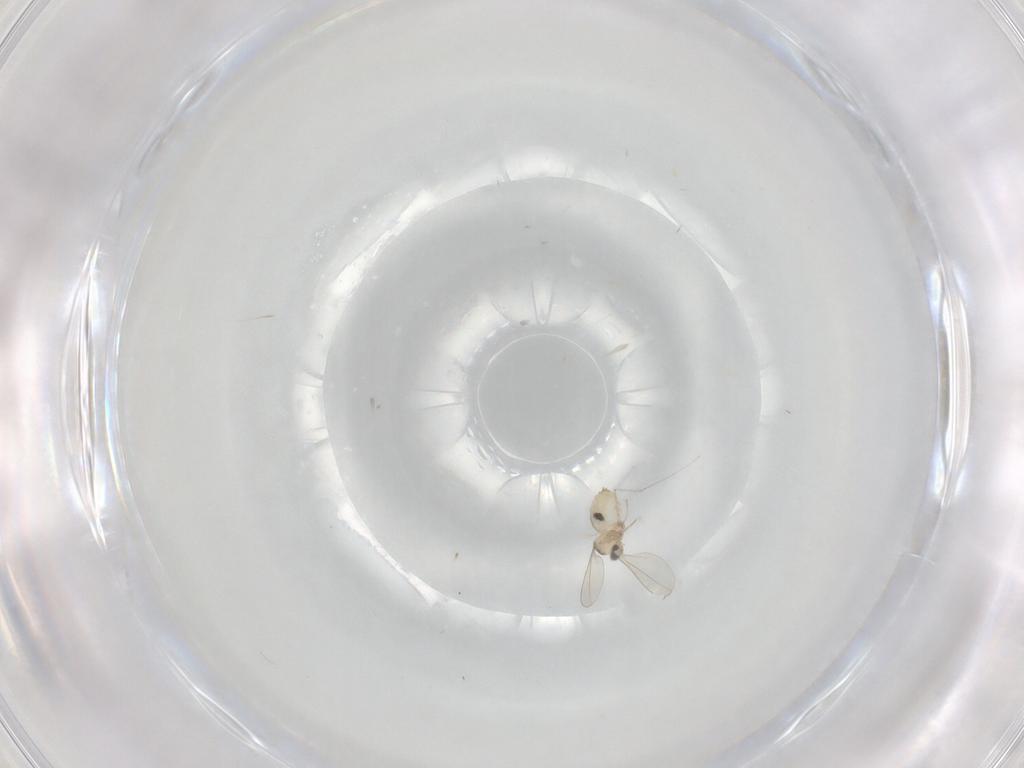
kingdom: Animalia
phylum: Arthropoda
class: Insecta
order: Diptera
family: Cecidomyiidae
